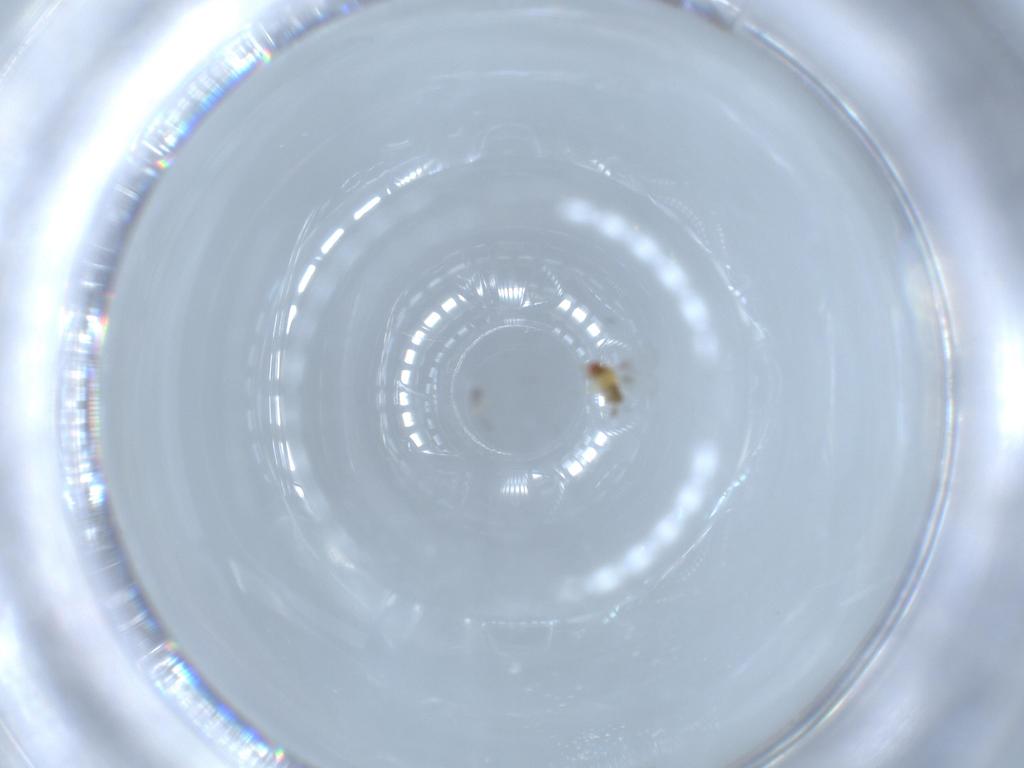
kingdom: Animalia
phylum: Arthropoda
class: Insecta
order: Hymenoptera
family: Trichogrammatidae
